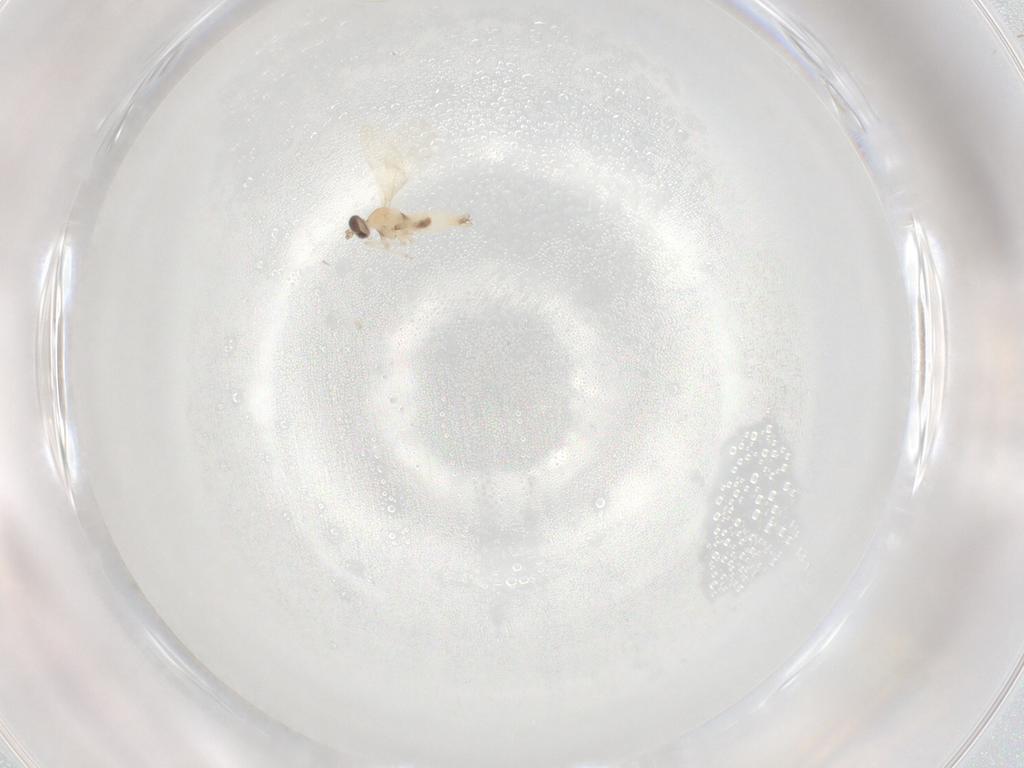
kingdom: Animalia
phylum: Arthropoda
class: Insecta
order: Diptera
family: Cecidomyiidae
